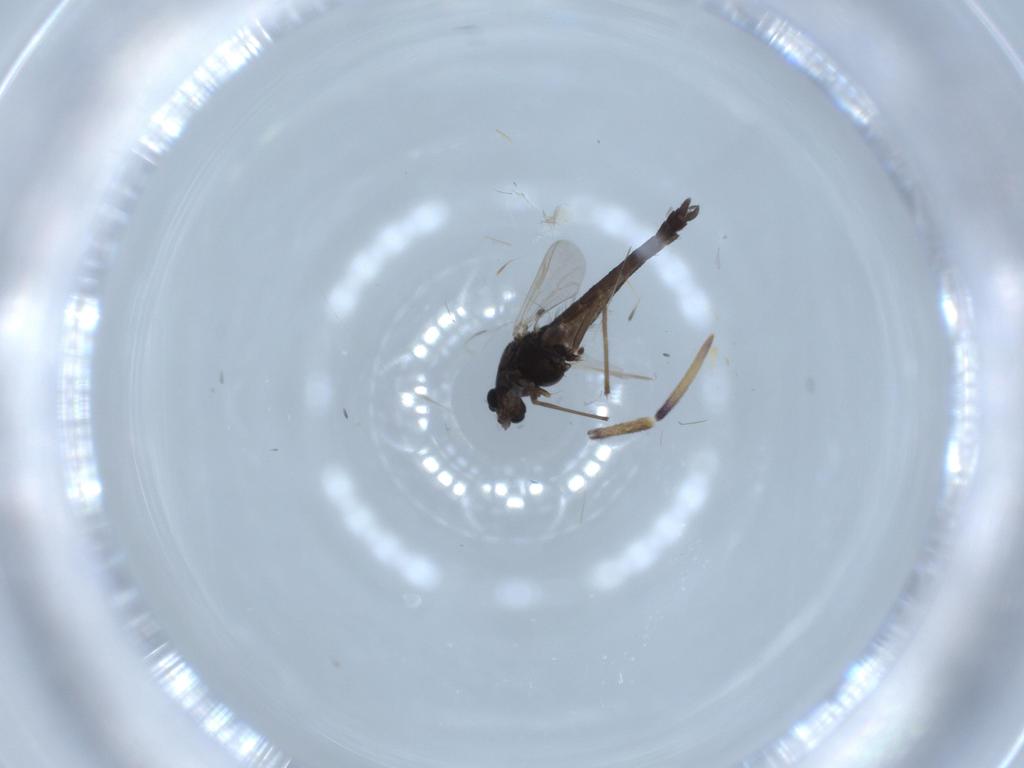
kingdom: Animalia
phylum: Arthropoda
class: Insecta
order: Diptera
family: Chironomidae
